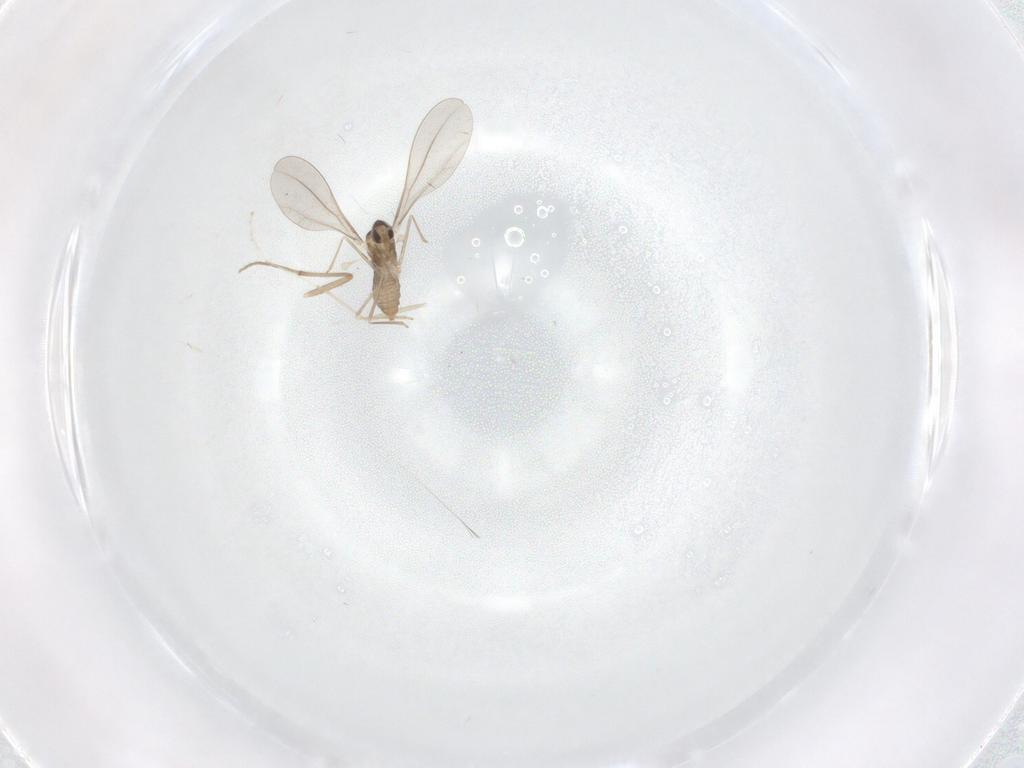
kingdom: Animalia
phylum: Arthropoda
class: Insecta
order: Diptera
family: Cecidomyiidae
